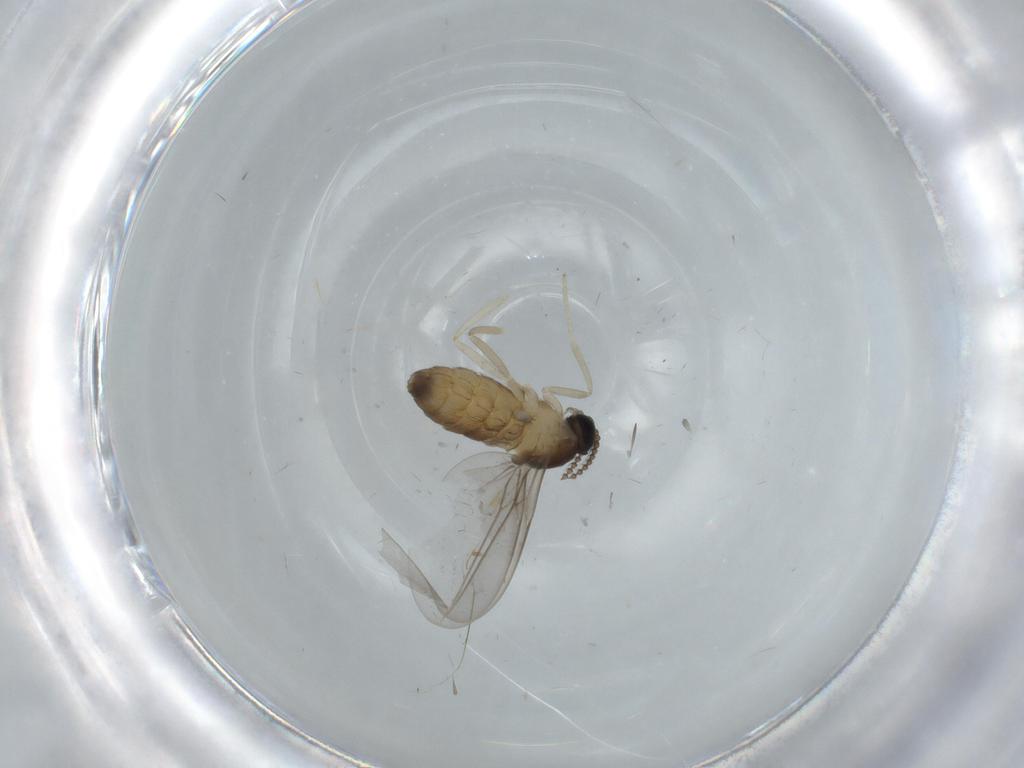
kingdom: Animalia
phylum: Arthropoda
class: Insecta
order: Diptera
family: Cecidomyiidae
